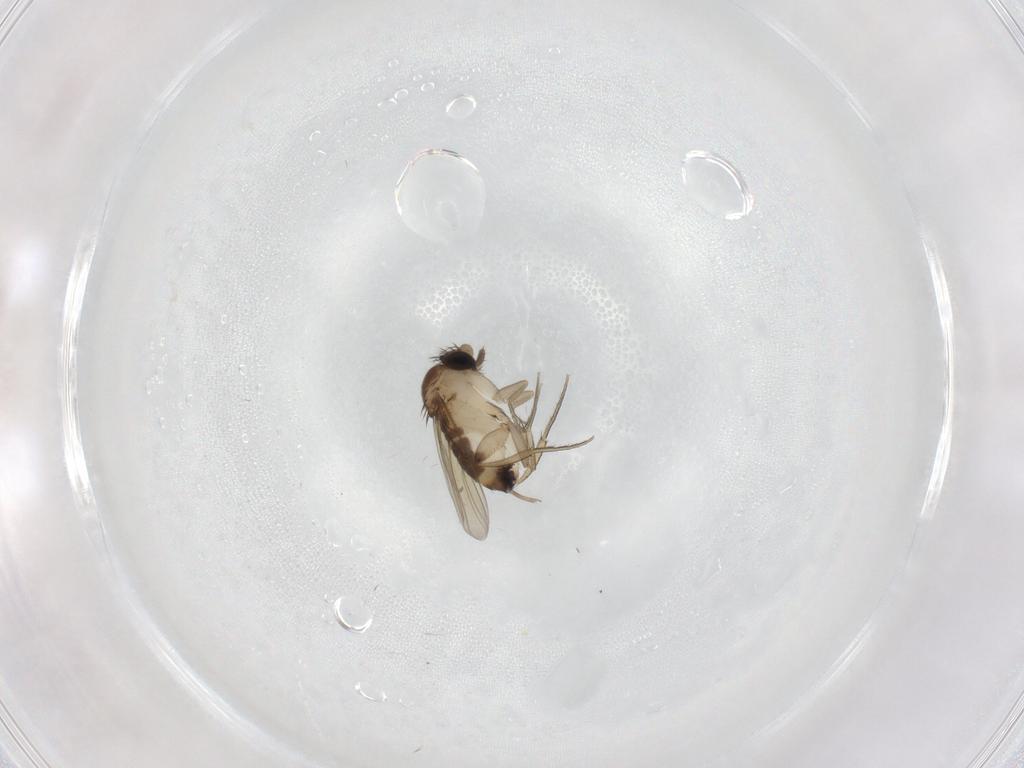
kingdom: Animalia
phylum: Arthropoda
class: Insecta
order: Diptera
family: Phoridae
